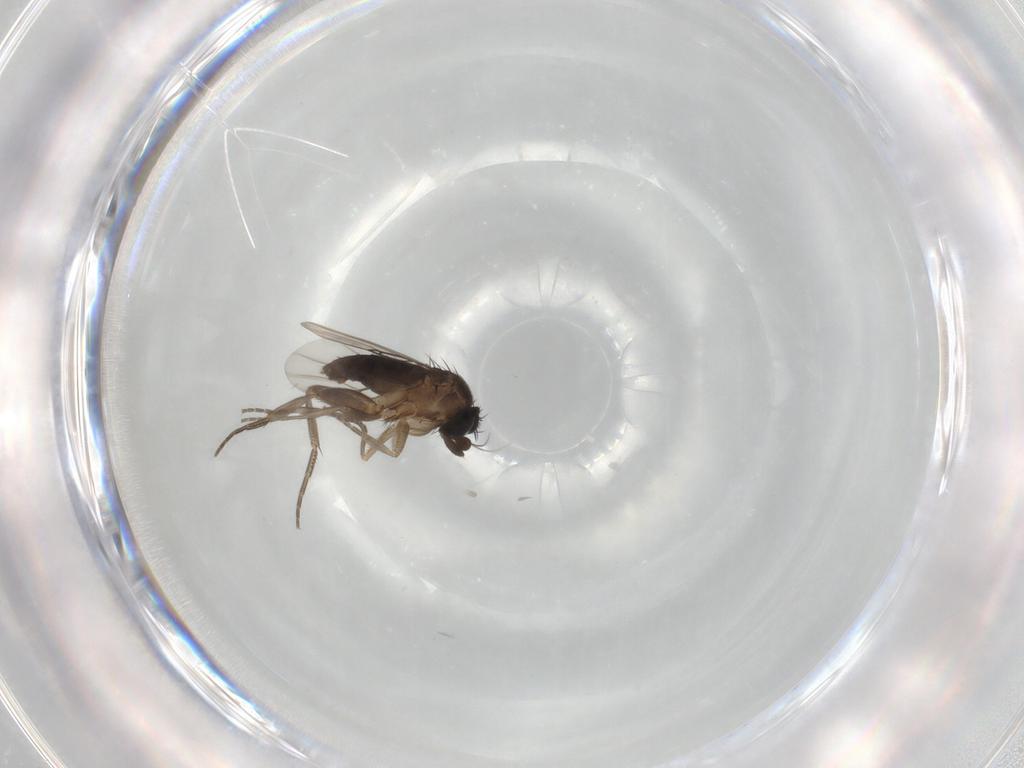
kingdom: Animalia
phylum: Arthropoda
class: Insecta
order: Diptera
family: Phoridae
